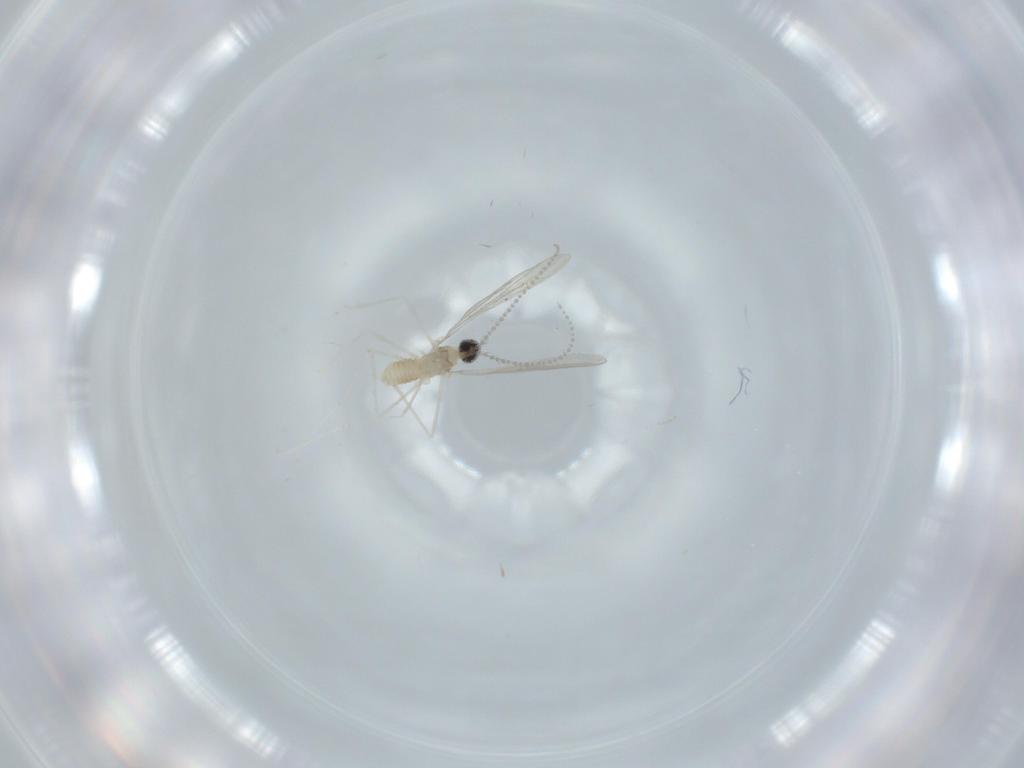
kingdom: Animalia
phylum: Arthropoda
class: Insecta
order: Diptera
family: Cecidomyiidae
